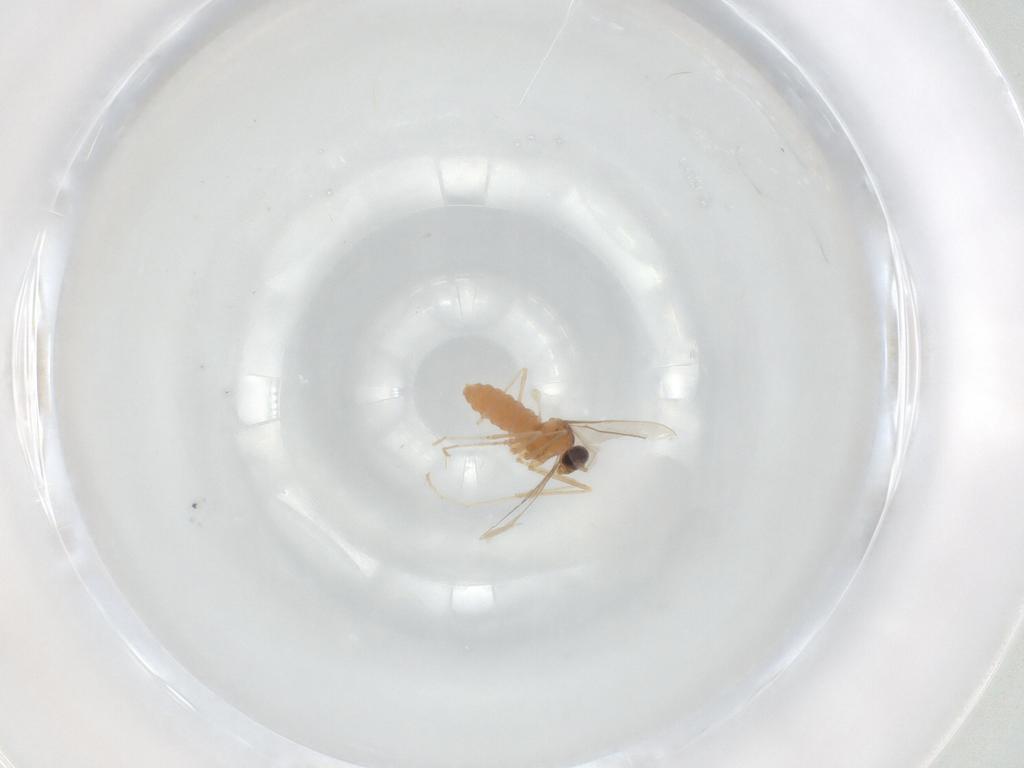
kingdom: Animalia
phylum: Arthropoda
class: Insecta
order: Diptera
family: Cecidomyiidae
